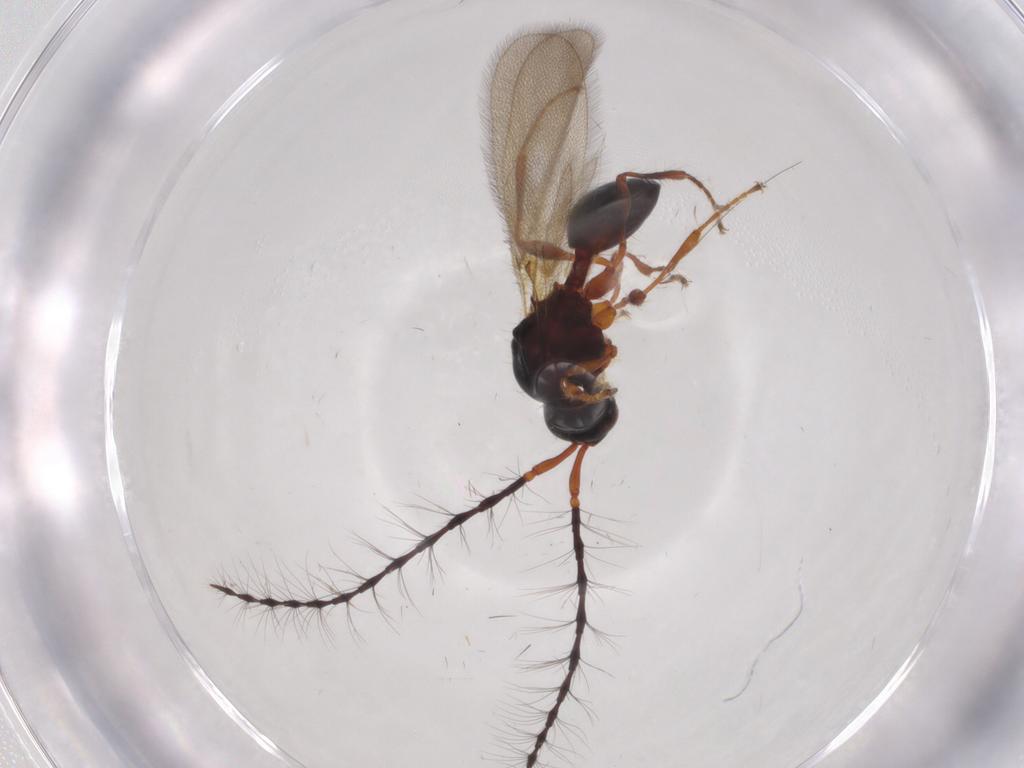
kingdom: Animalia
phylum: Arthropoda
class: Insecta
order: Hymenoptera
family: Diapriidae
